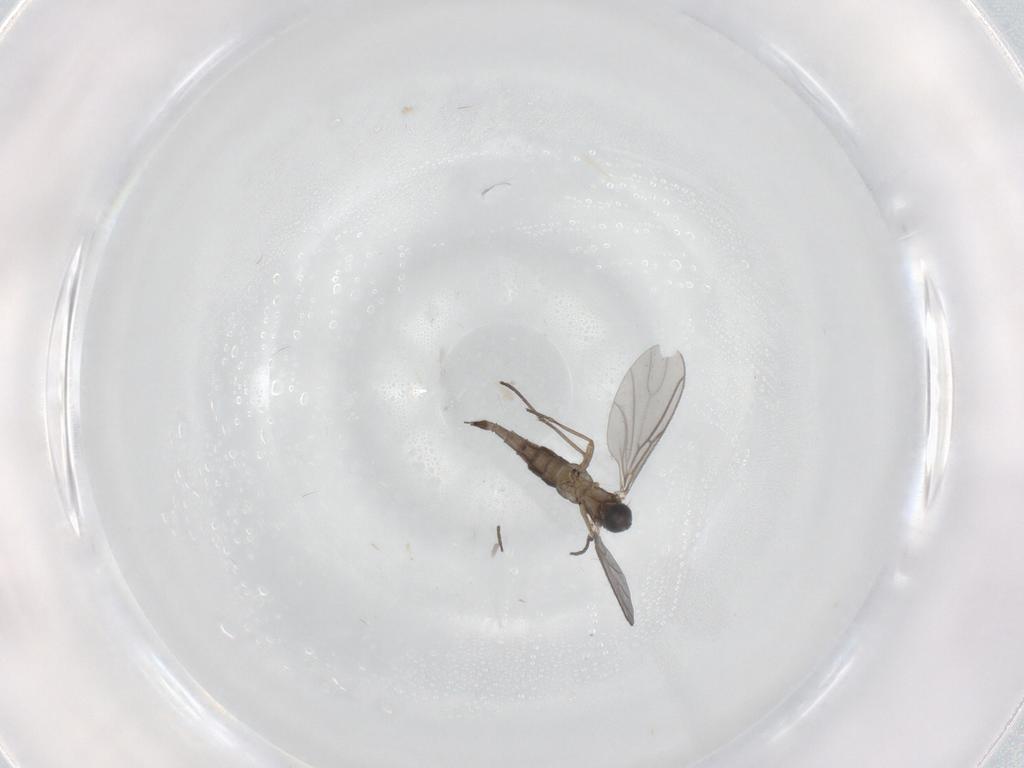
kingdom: Animalia
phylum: Arthropoda
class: Insecta
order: Diptera
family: Sciaridae
